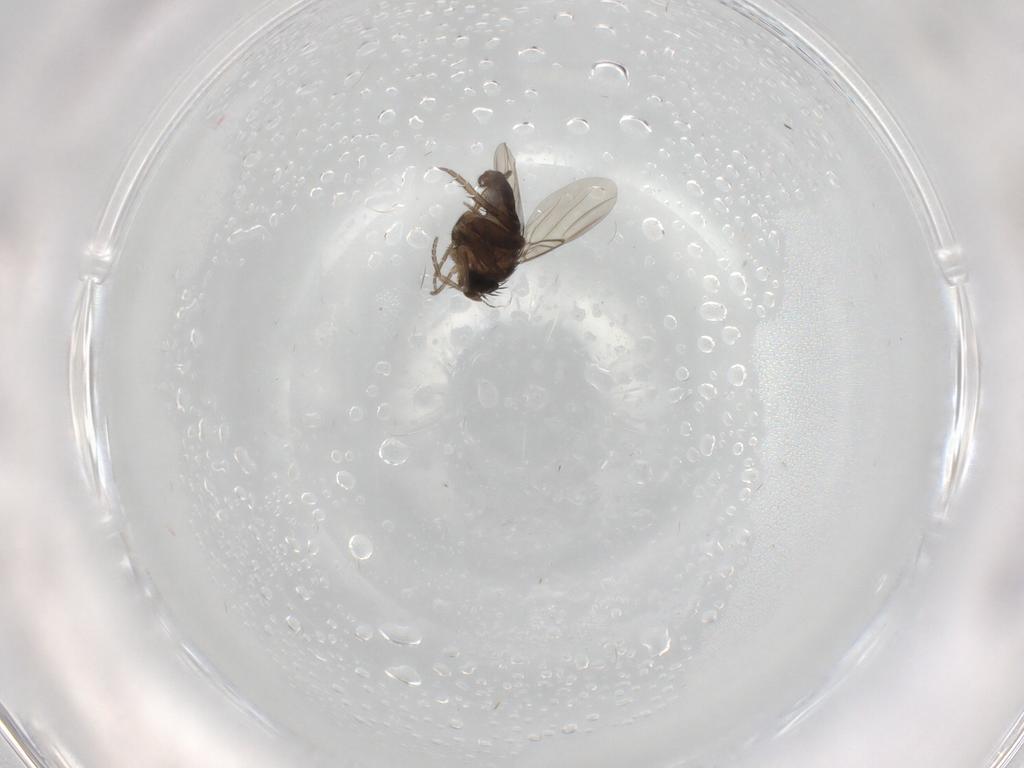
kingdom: Animalia
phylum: Arthropoda
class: Insecta
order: Diptera
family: Phoridae
